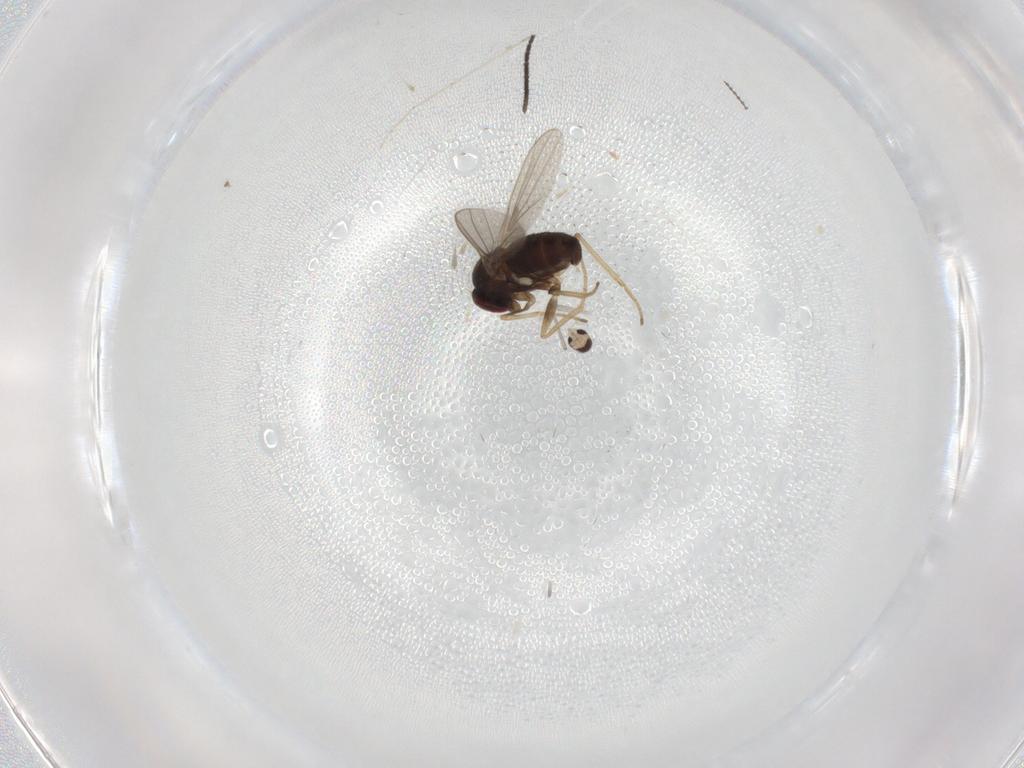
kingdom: Animalia
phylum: Arthropoda
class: Insecta
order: Diptera
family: Dolichopodidae
